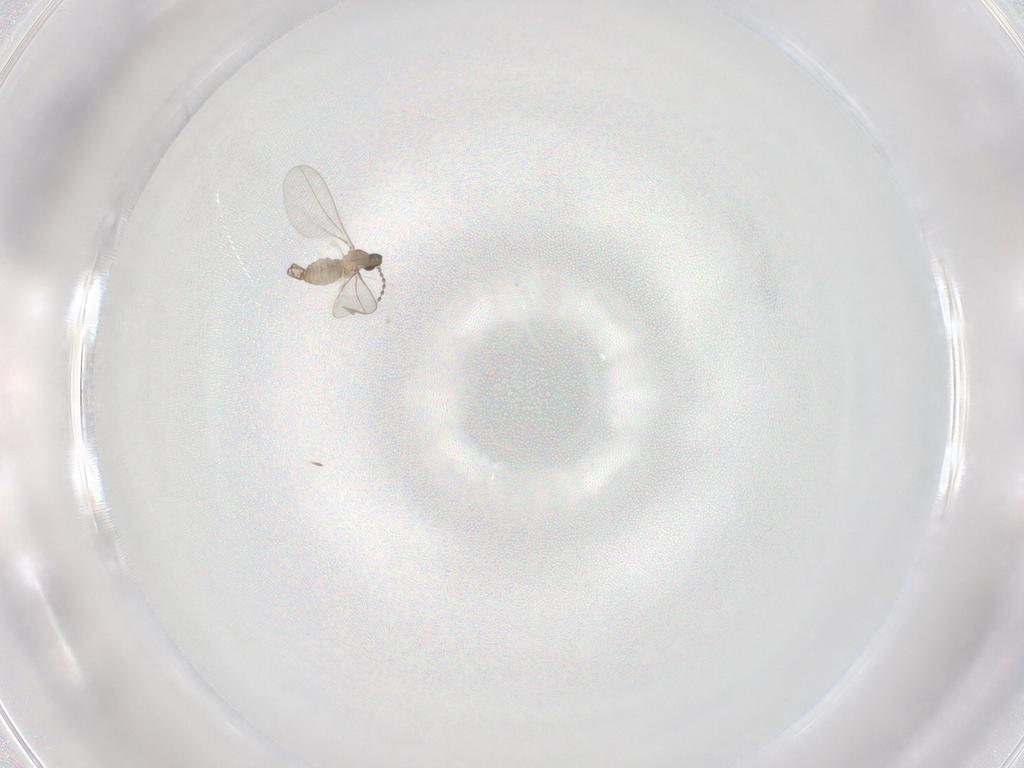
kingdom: Animalia
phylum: Arthropoda
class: Insecta
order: Diptera
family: Cecidomyiidae
